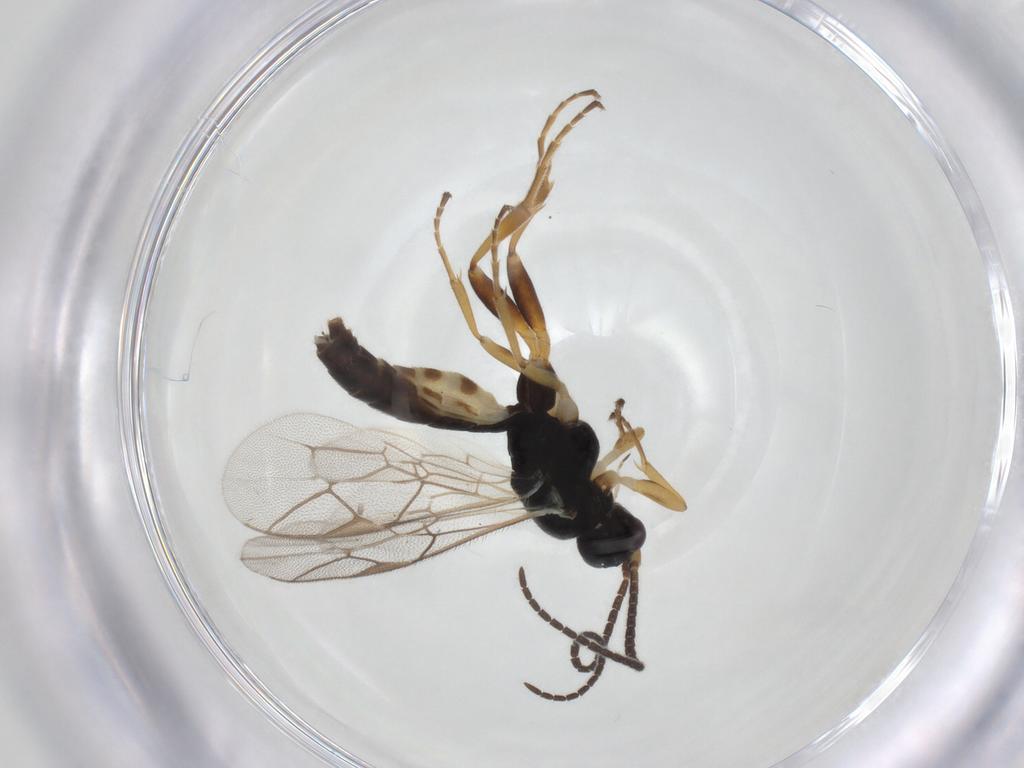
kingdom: Animalia
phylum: Arthropoda
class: Insecta
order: Hymenoptera
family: Ichneumonidae
